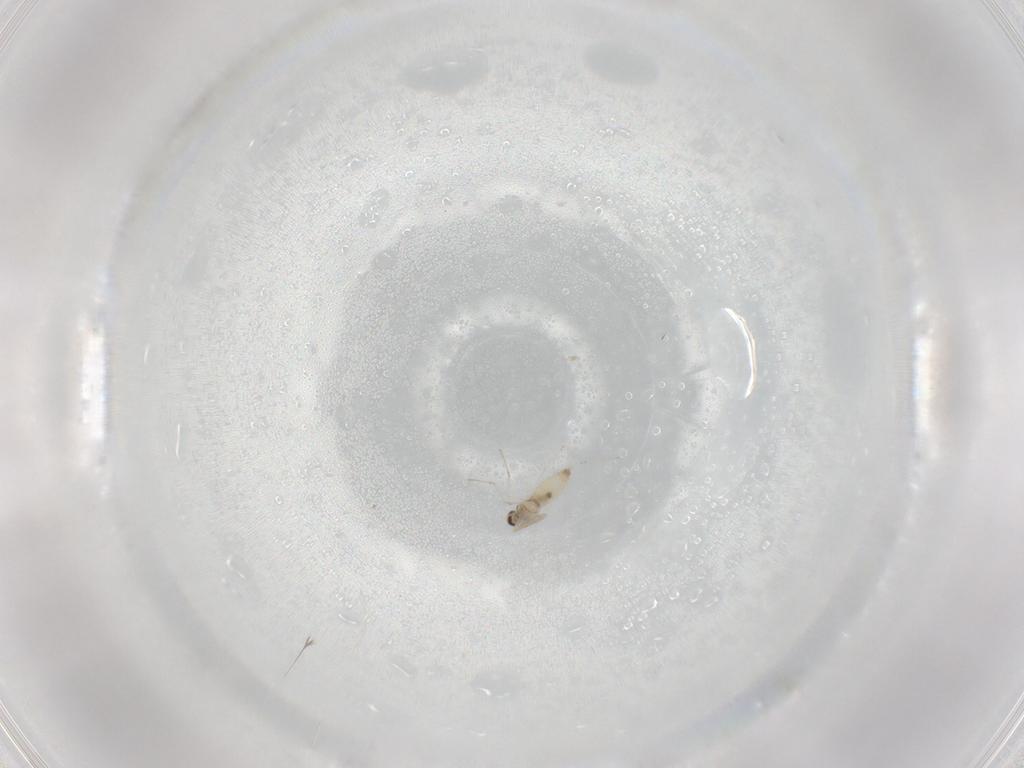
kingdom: Animalia
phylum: Arthropoda
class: Insecta
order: Diptera
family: Cecidomyiidae
